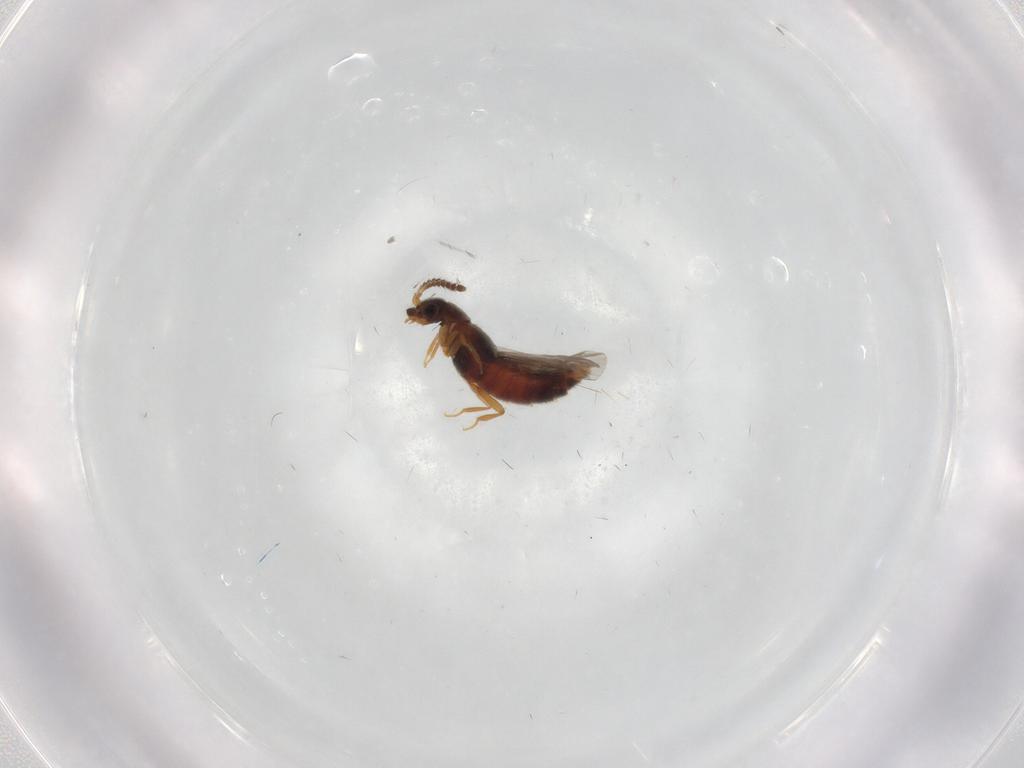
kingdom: Animalia
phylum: Arthropoda
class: Insecta
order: Coleoptera
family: Staphylinidae
